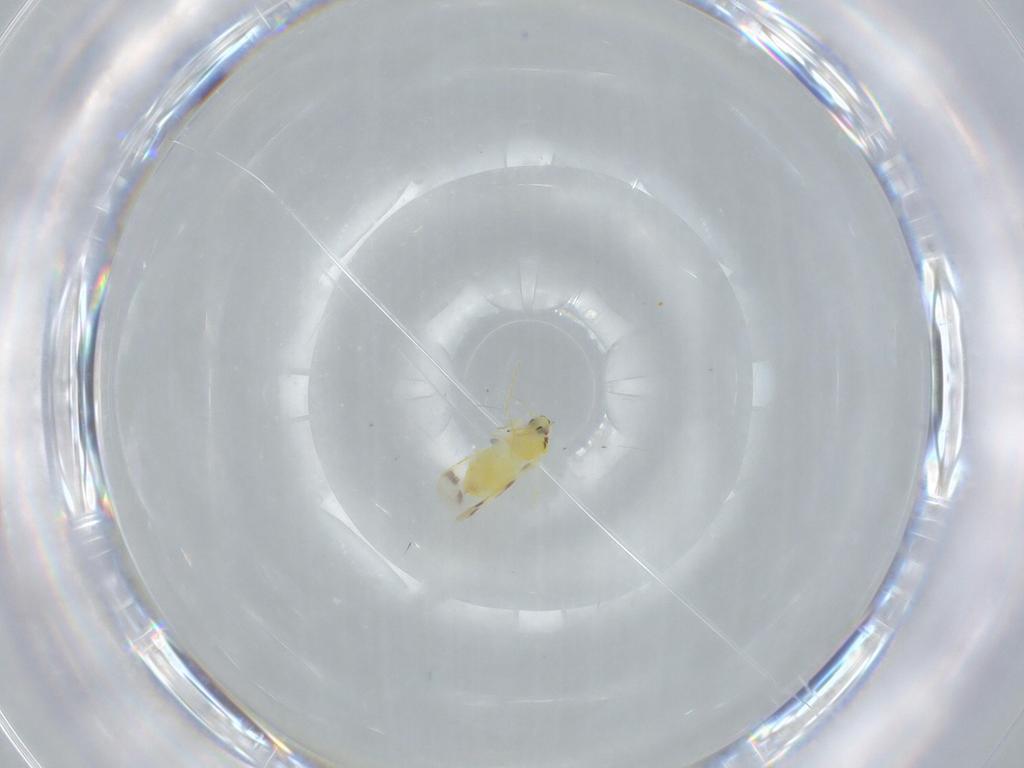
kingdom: Animalia
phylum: Arthropoda
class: Insecta
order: Hemiptera
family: Aleyrodidae
